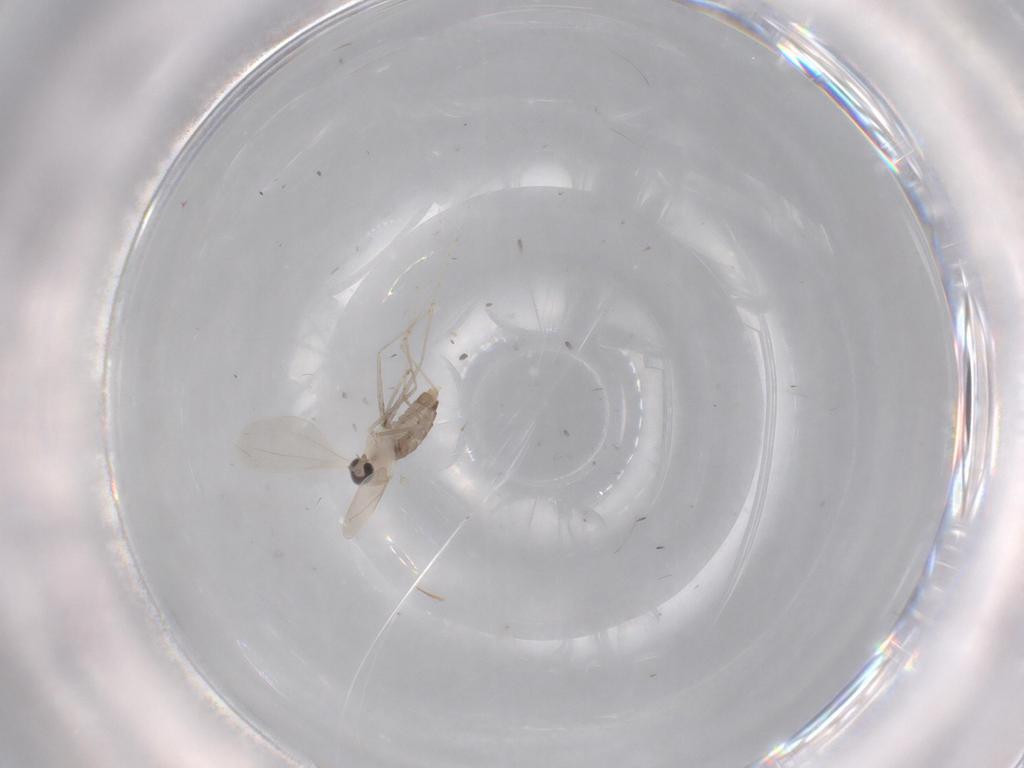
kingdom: Animalia
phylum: Arthropoda
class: Insecta
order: Diptera
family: Cecidomyiidae
